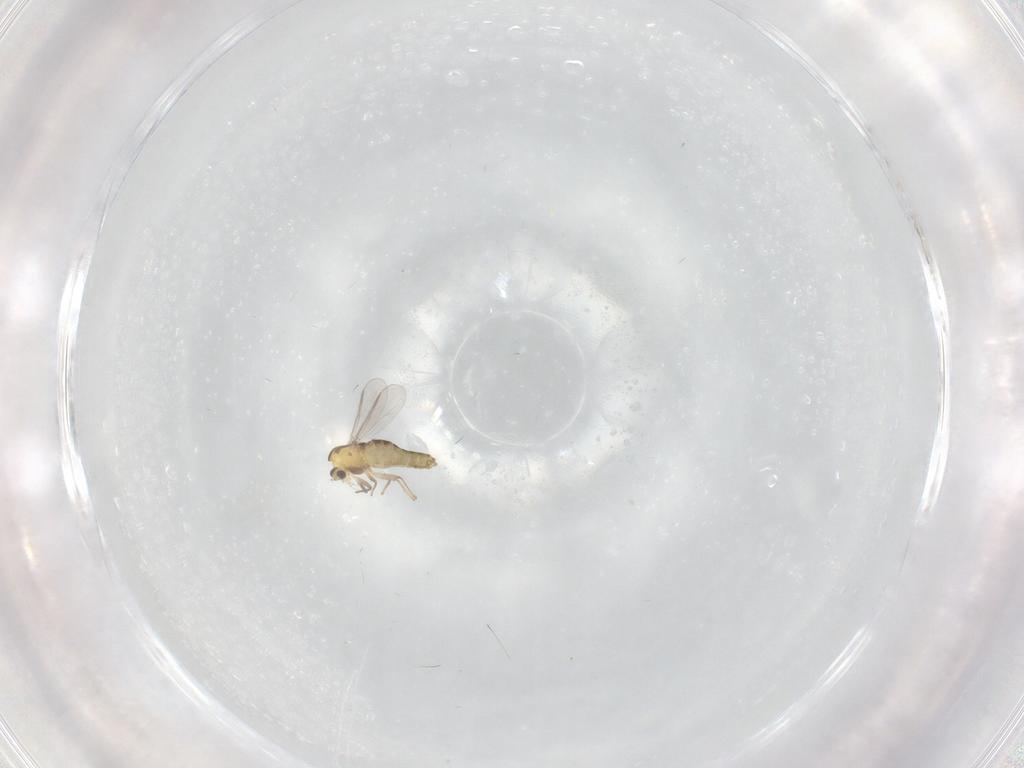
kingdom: Animalia
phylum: Arthropoda
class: Insecta
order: Diptera
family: Chironomidae
